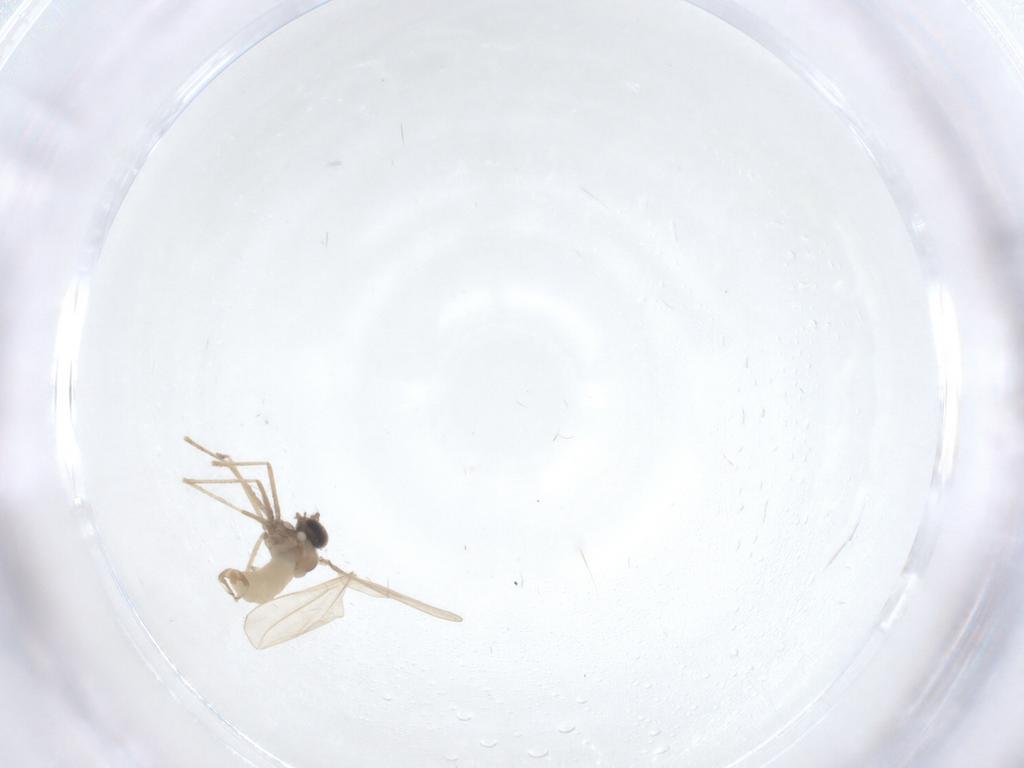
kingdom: Animalia
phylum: Arthropoda
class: Insecta
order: Diptera
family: Cecidomyiidae
